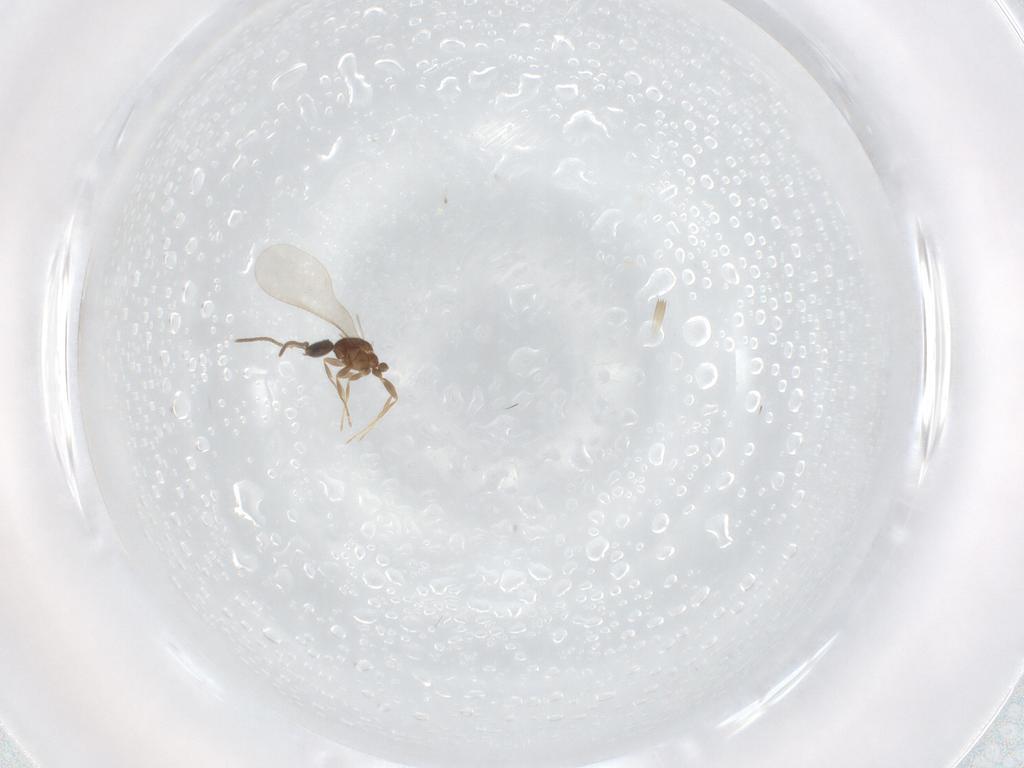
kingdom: Animalia
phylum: Arthropoda
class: Insecta
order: Hymenoptera
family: Formicidae
